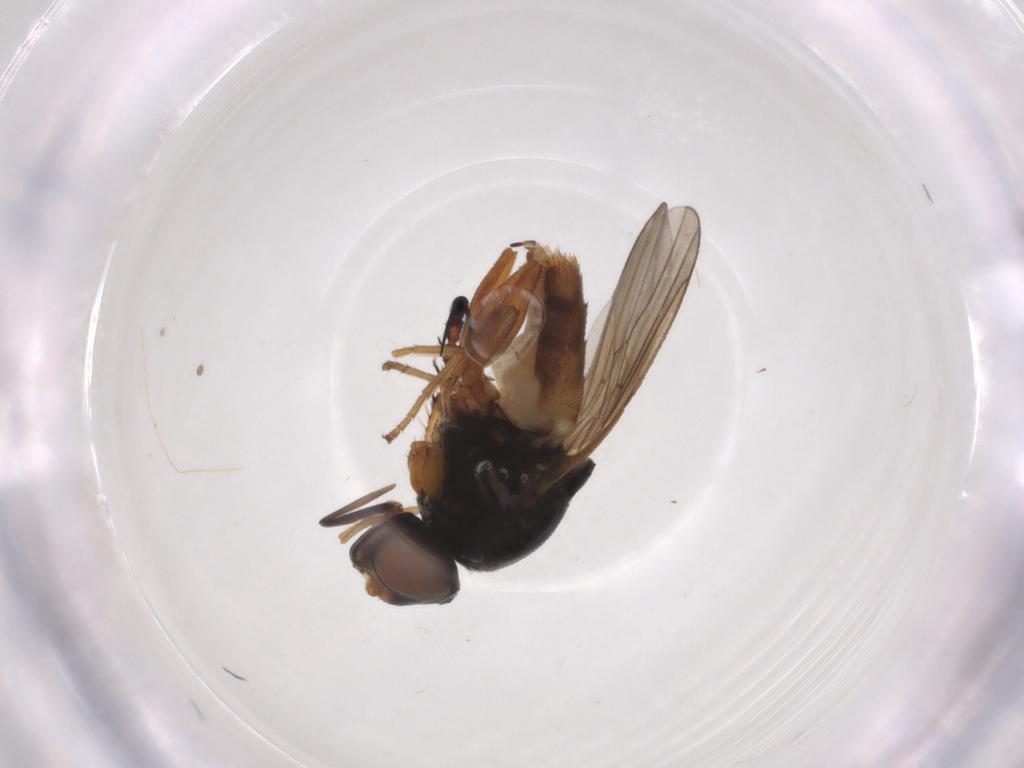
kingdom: Animalia
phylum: Arthropoda
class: Insecta
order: Diptera
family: Chloropidae
